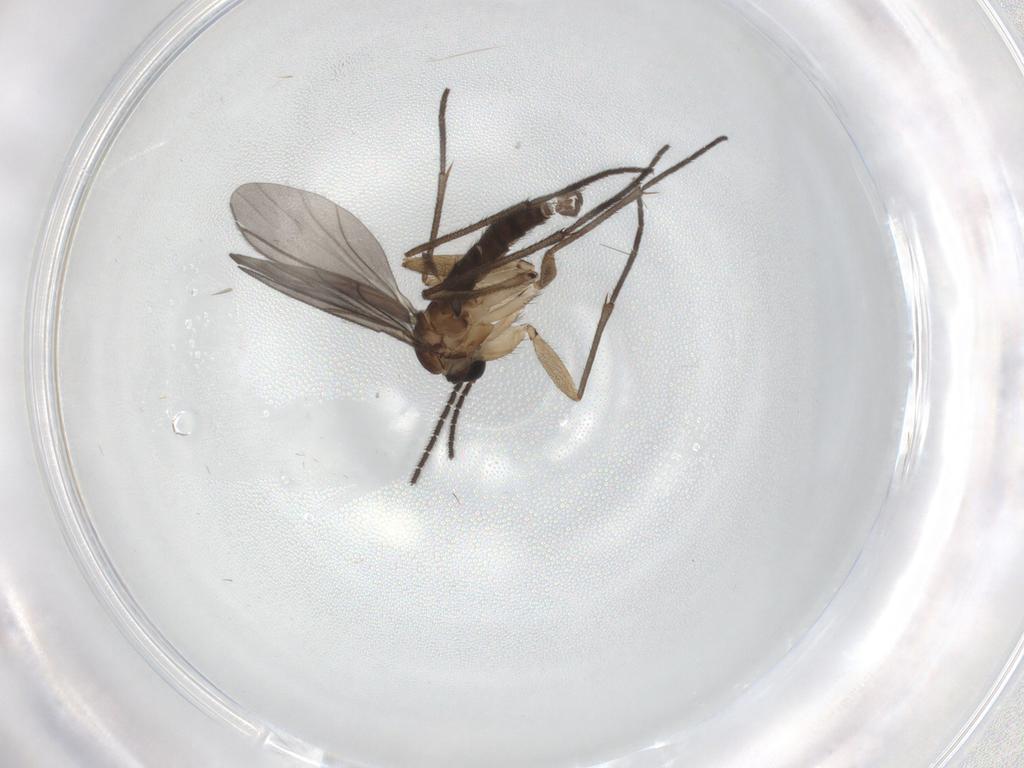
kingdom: Animalia
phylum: Arthropoda
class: Insecta
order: Diptera
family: Sciaridae
